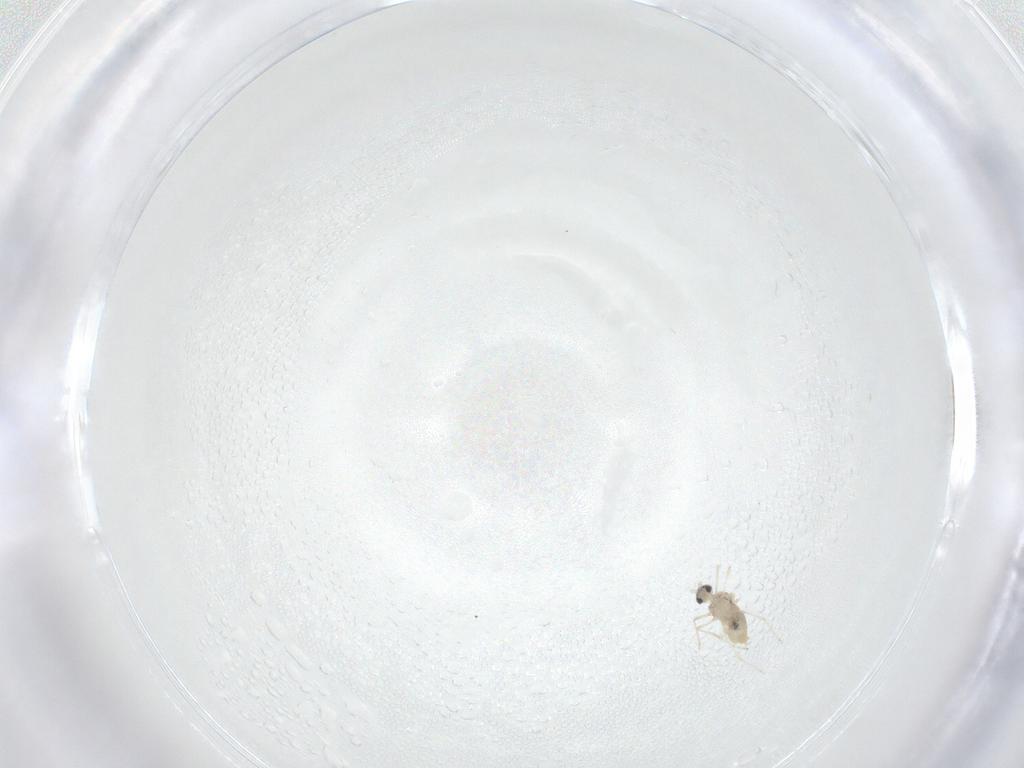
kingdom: Animalia
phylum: Arthropoda
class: Insecta
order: Diptera
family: Cecidomyiidae
